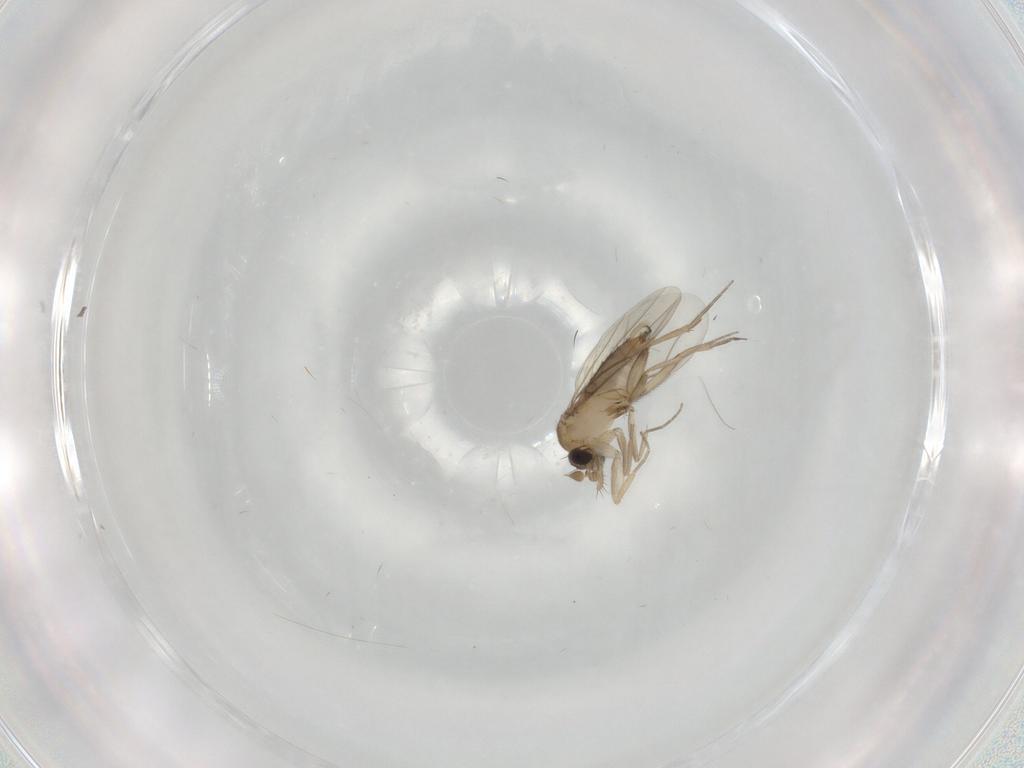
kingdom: Animalia
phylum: Arthropoda
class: Insecta
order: Diptera
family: Phoridae
